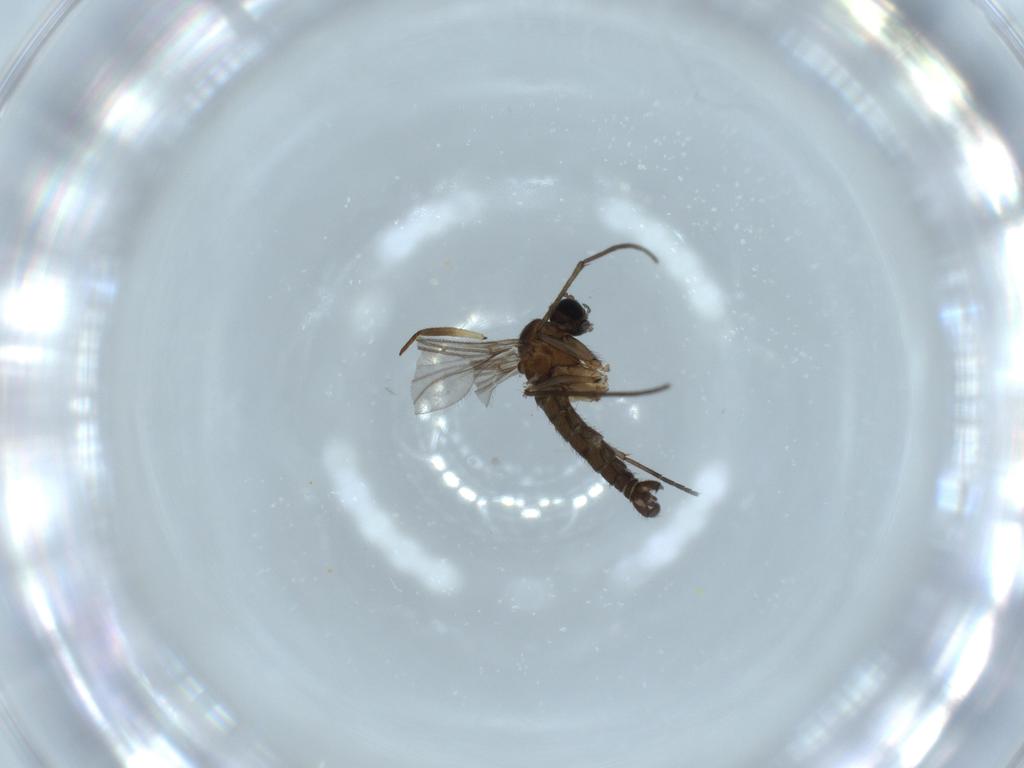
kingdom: Animalia
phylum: Arthropoda
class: Insecta
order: Diptera
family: Sciaridae
